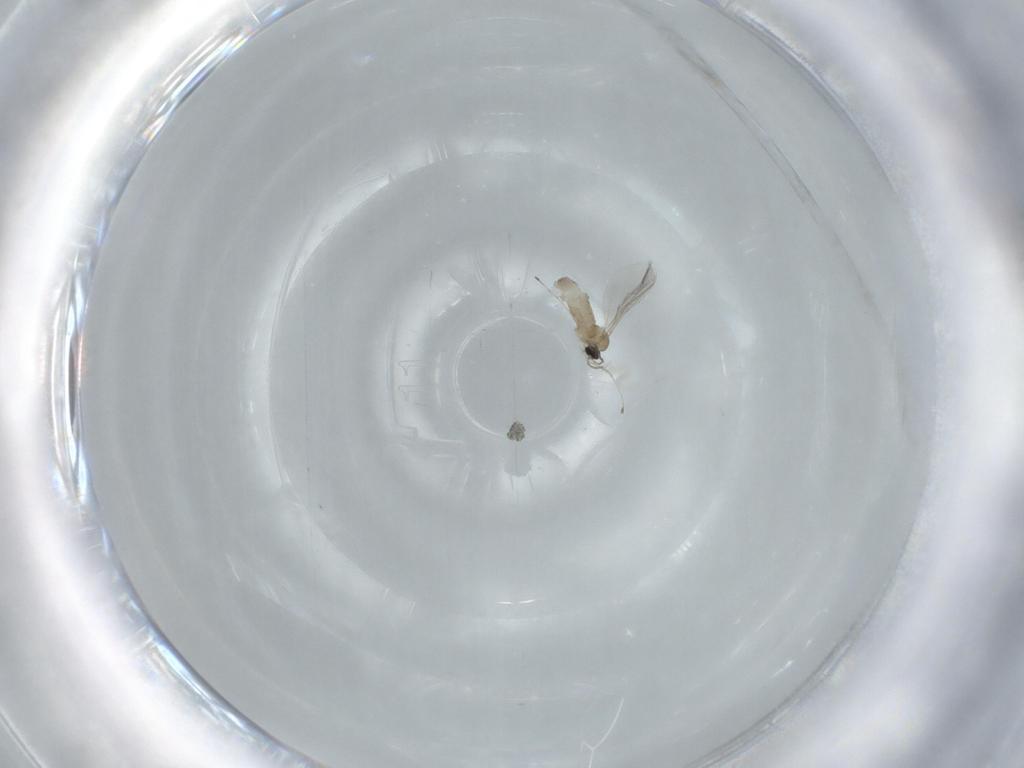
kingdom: Animalia
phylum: Arthropoda
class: Insecta
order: Diptera
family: Cecidomyiidae
